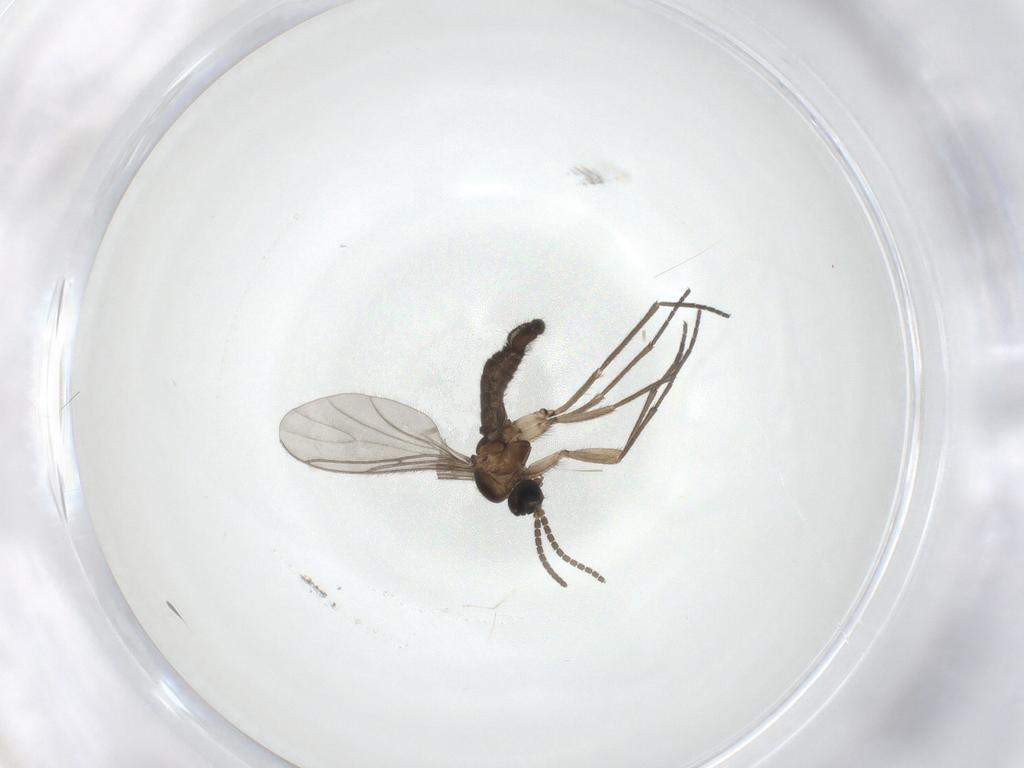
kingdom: Animalia
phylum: Arthropoda
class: Insecta
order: Diptera
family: Sciaridae
